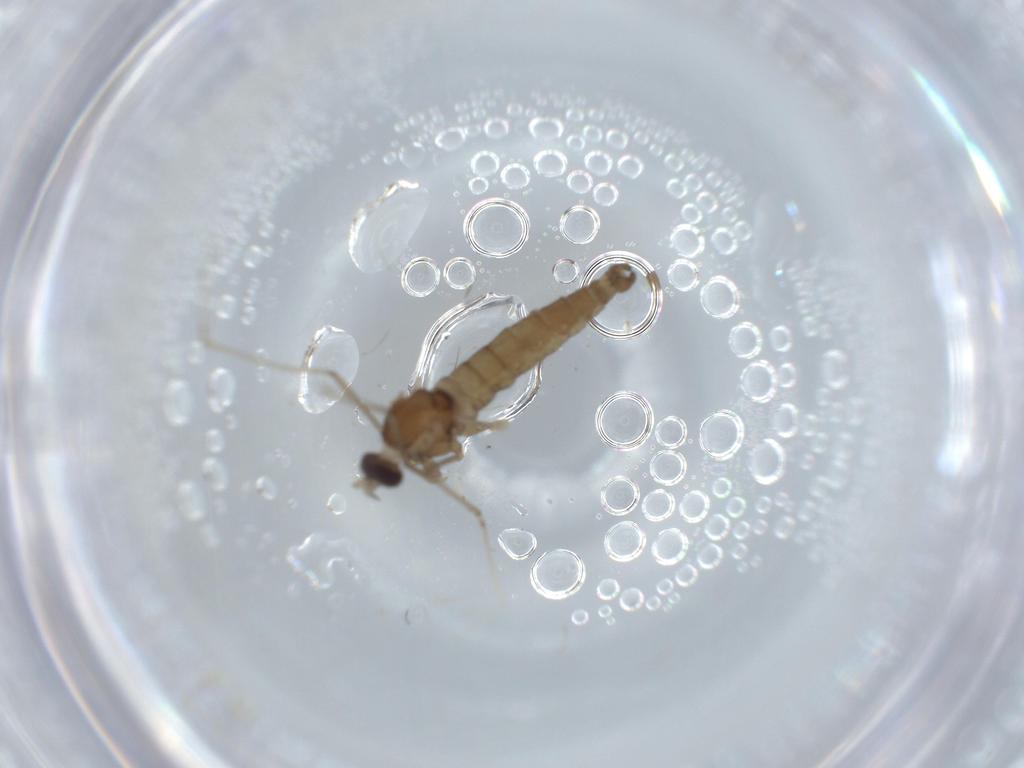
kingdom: Animalia
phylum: Arthropoda
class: Insecta
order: Diptera
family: Cecidomyiidae
